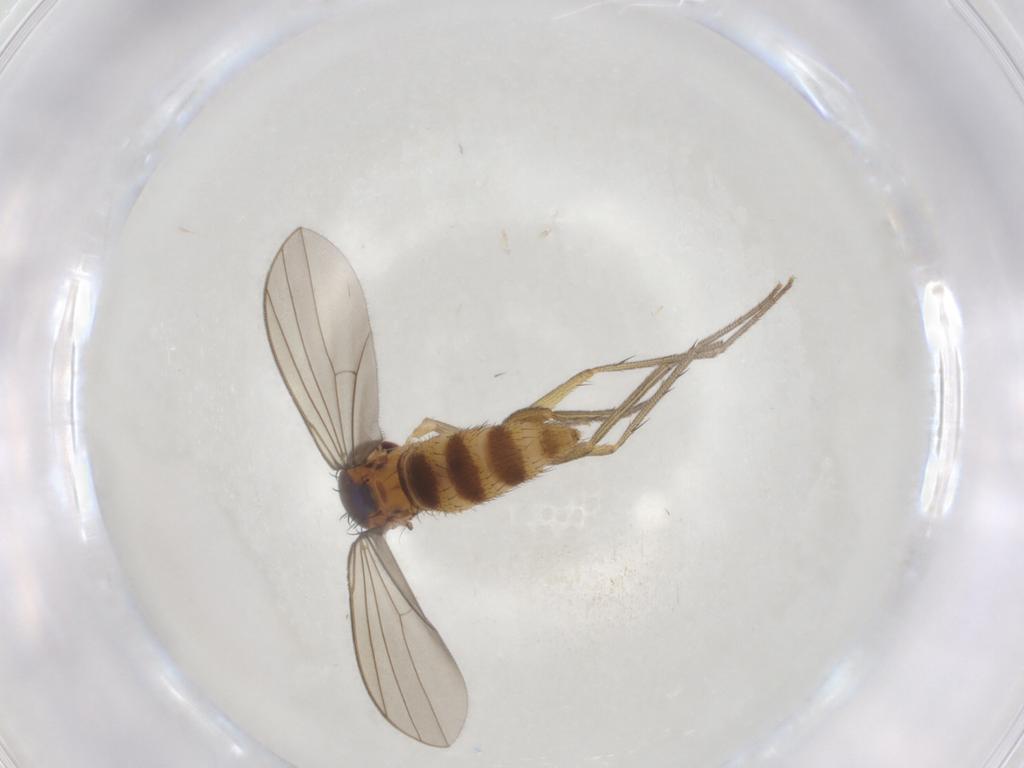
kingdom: Animalia
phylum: Arthropoda
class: Insecta
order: Diptera
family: Dolichopodidae
